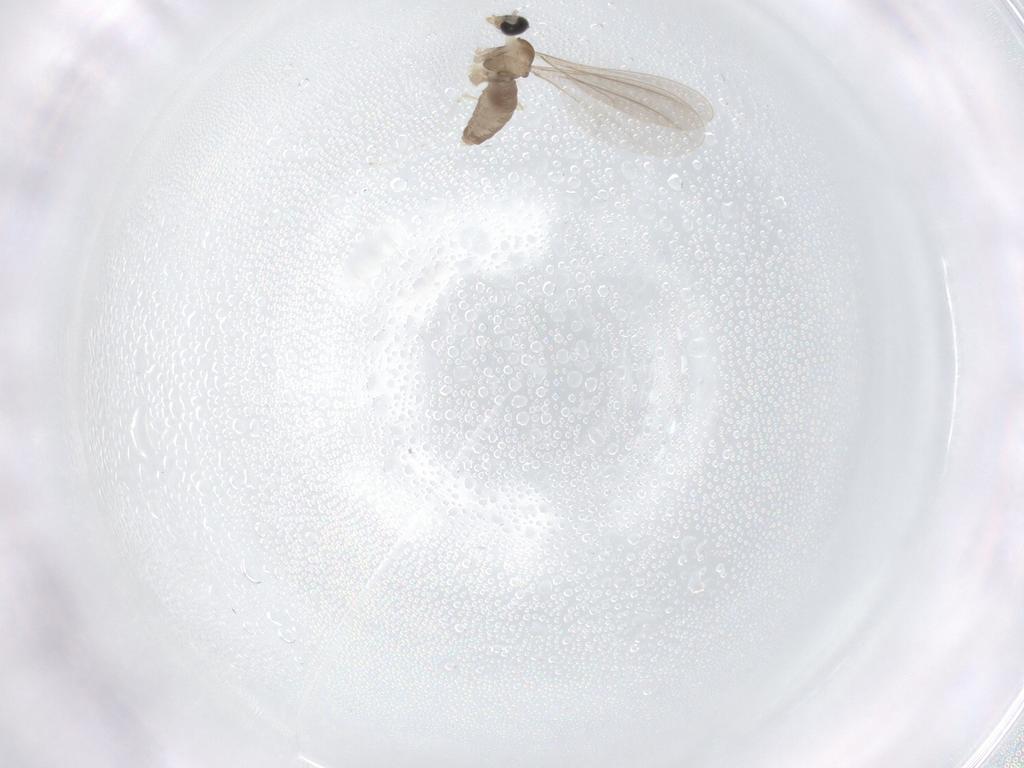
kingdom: Animalia
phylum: Arthropoda
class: Insecta
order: Diptera
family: Cecidomyiidae
